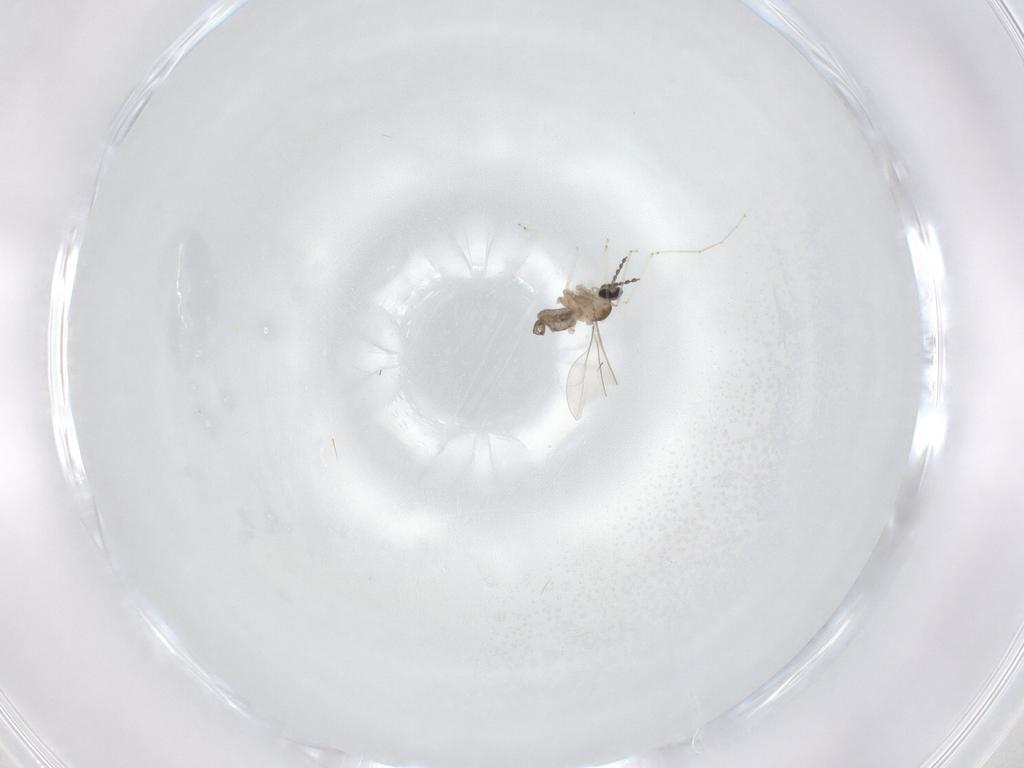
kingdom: Animalia
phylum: Arthropoda
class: Insecta
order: Diptera
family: Cecidomyiidae
